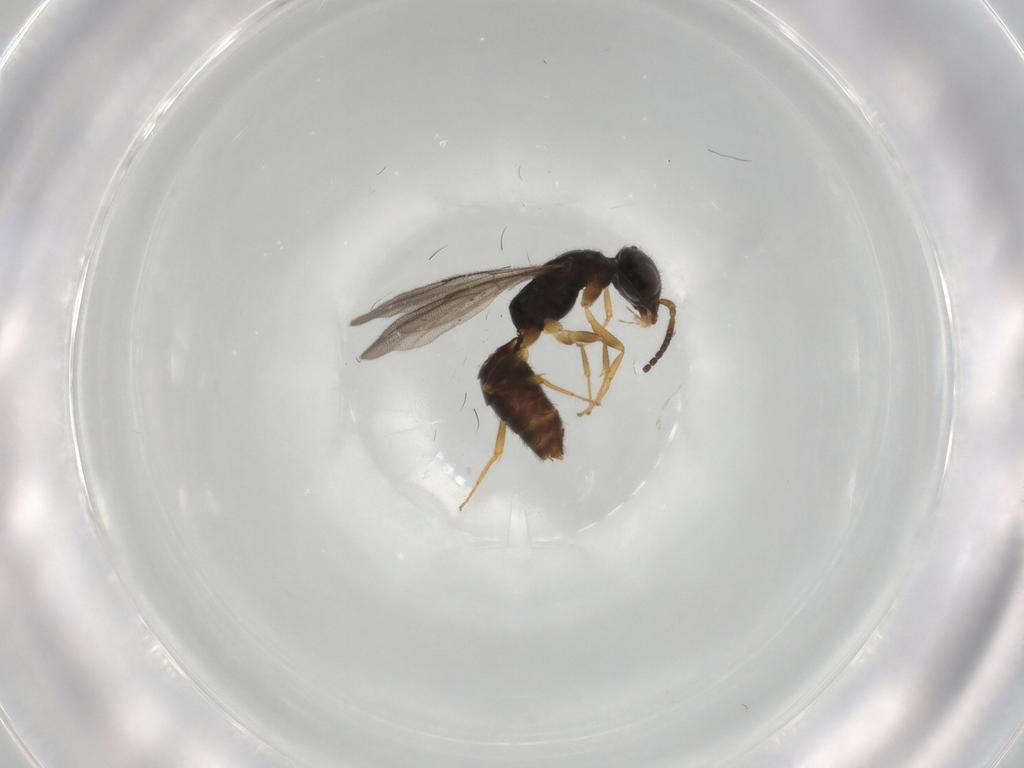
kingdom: Animalia
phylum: Arthropoda
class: Insecta
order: Hymenoptera
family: Bethylidae
